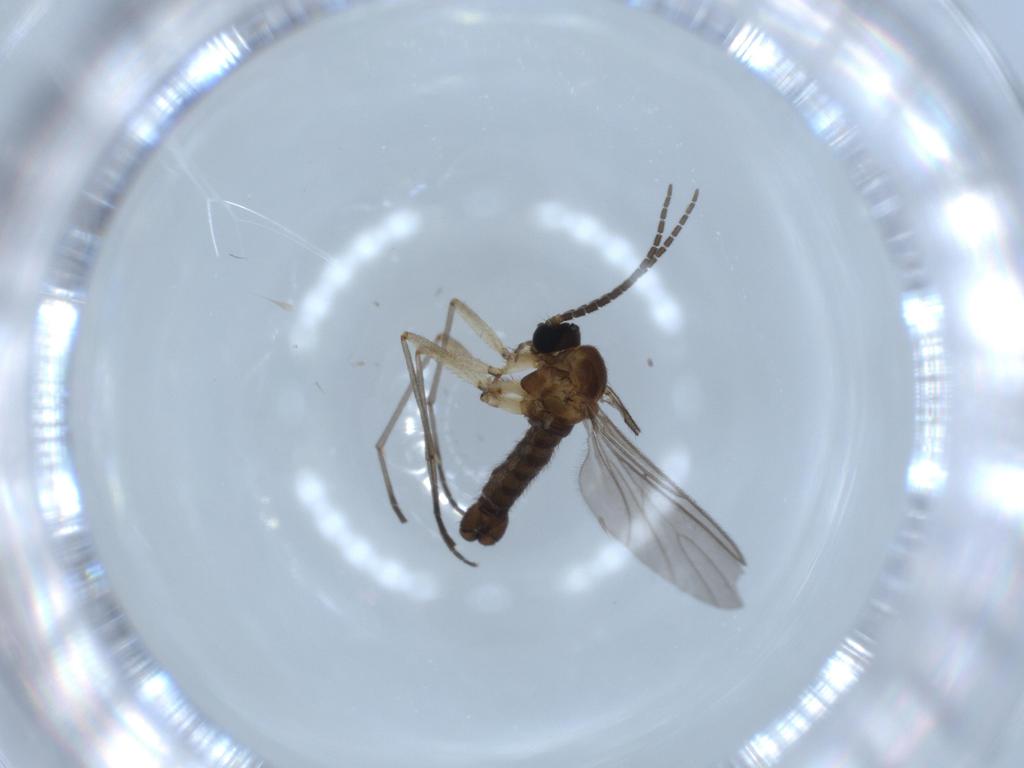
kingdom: Animalia
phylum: Arthropoda
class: Insecta
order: Diptera
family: Sciaridae
